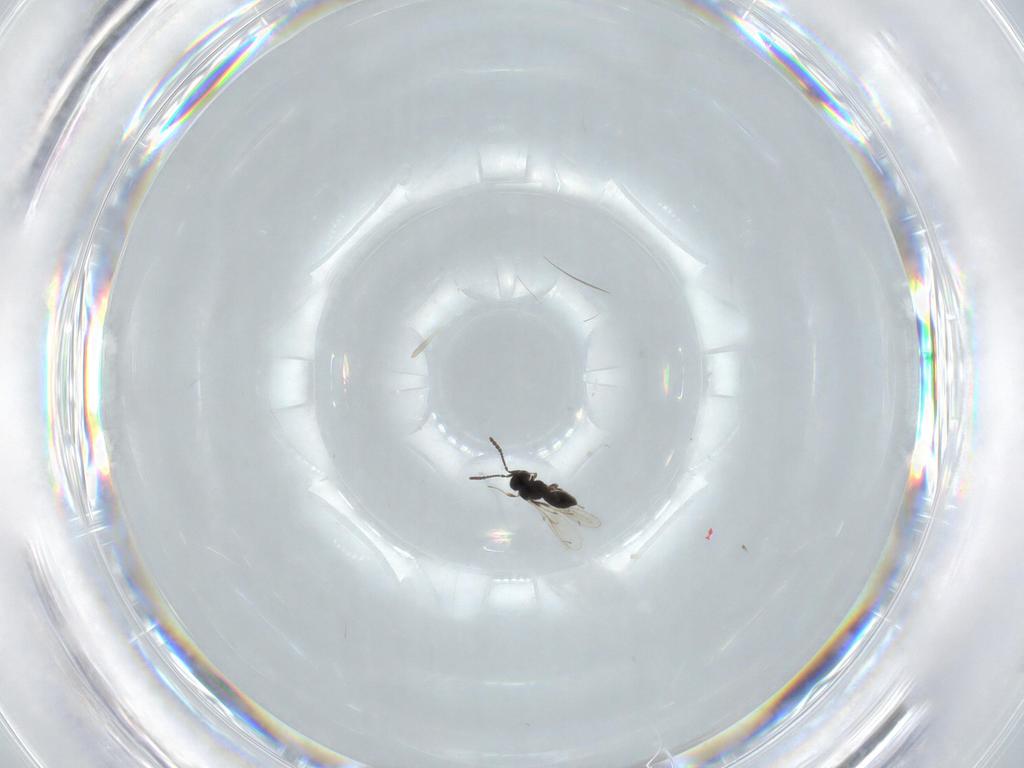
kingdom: Animalia
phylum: Arthropoda
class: Insecta
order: Hymenoptera
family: Scelionidae
